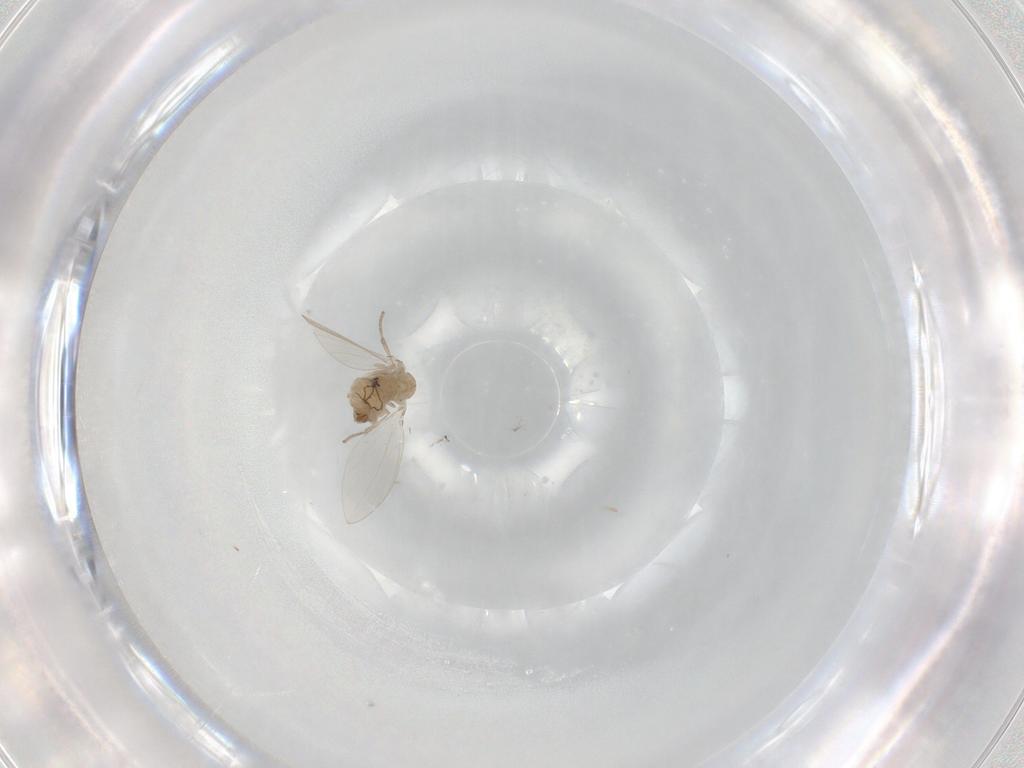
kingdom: Animalia
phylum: Arthropoda
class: Insecta
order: Diptera
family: Psychodidae
